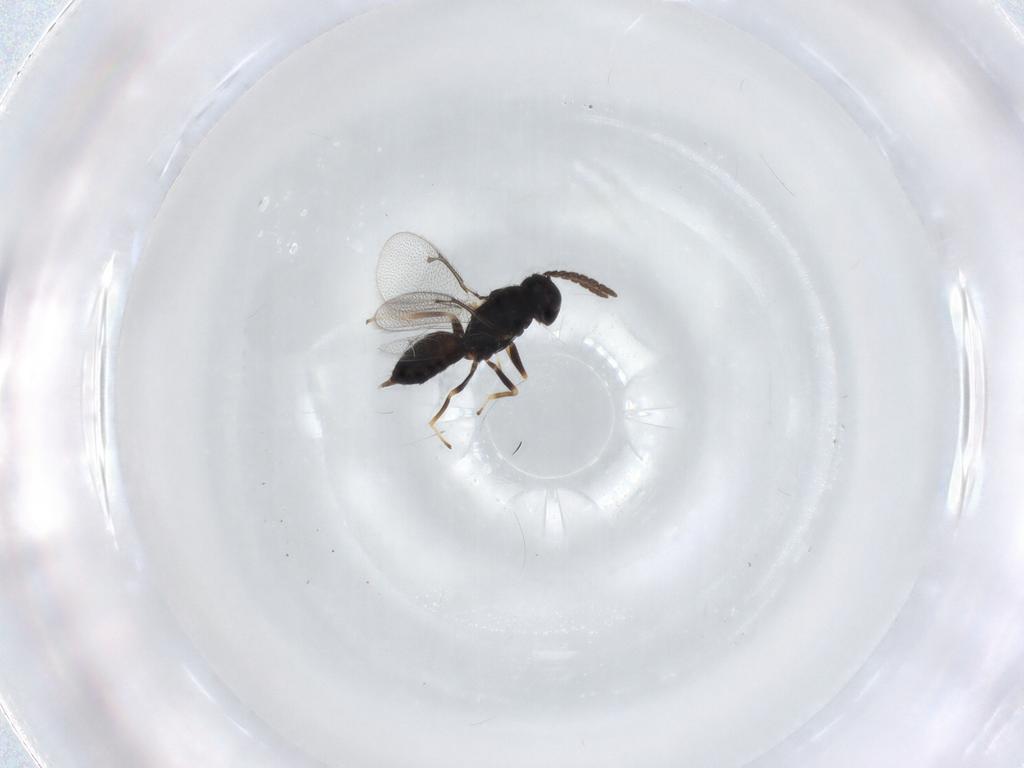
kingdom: Animalia
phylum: Arthropoda
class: Insecta
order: Hymenoptera
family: Eulophidae
